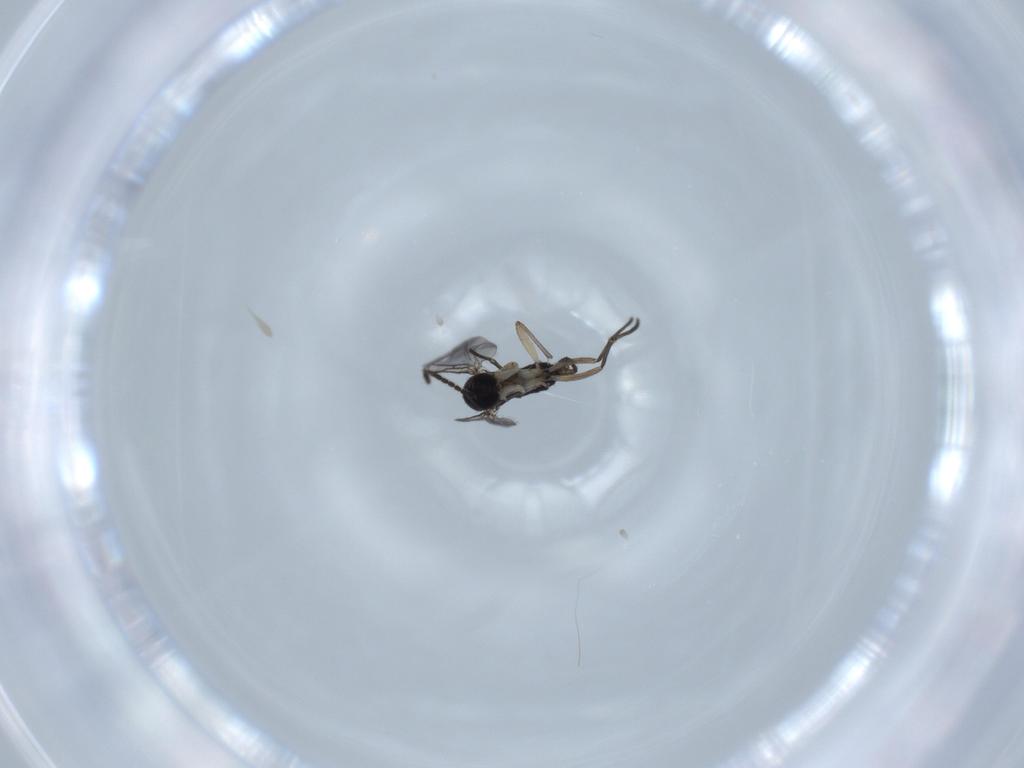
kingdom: Animalia
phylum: Arthropoda
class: Insecta
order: Diptera
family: Sciaridae
